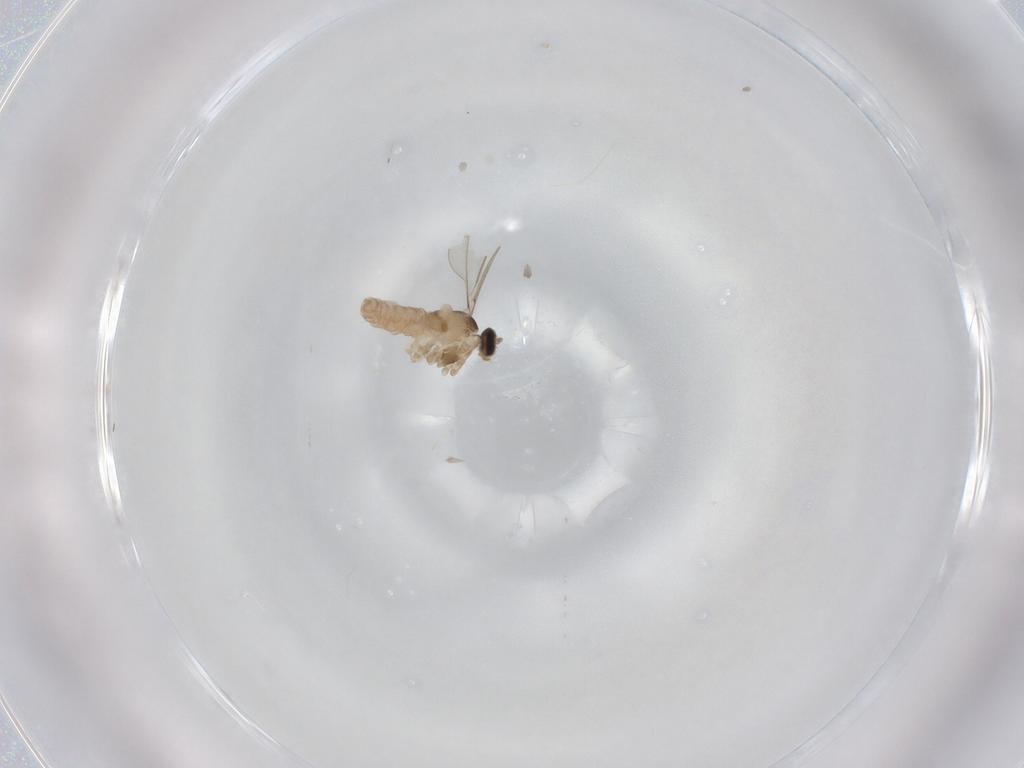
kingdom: Animalia
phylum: Arthropoda
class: Insecta
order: Diptera
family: Cecidomyiidae
